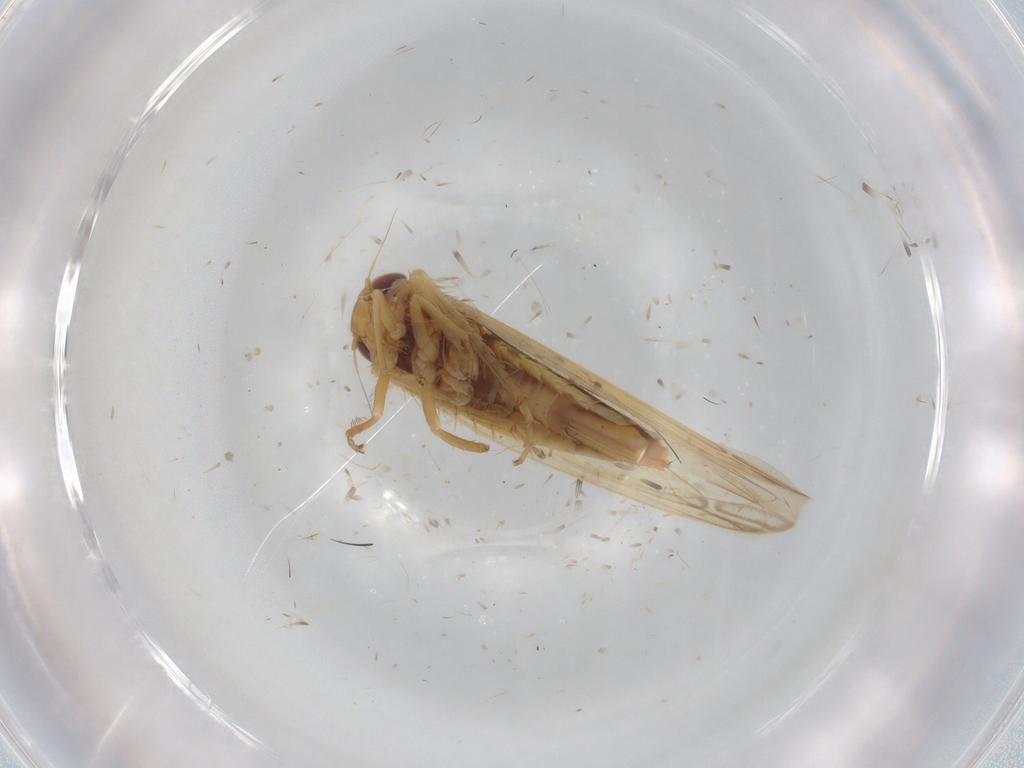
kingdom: Animalia
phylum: Arthropoda
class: Insecta
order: Hemiptera
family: Cicadellidae
